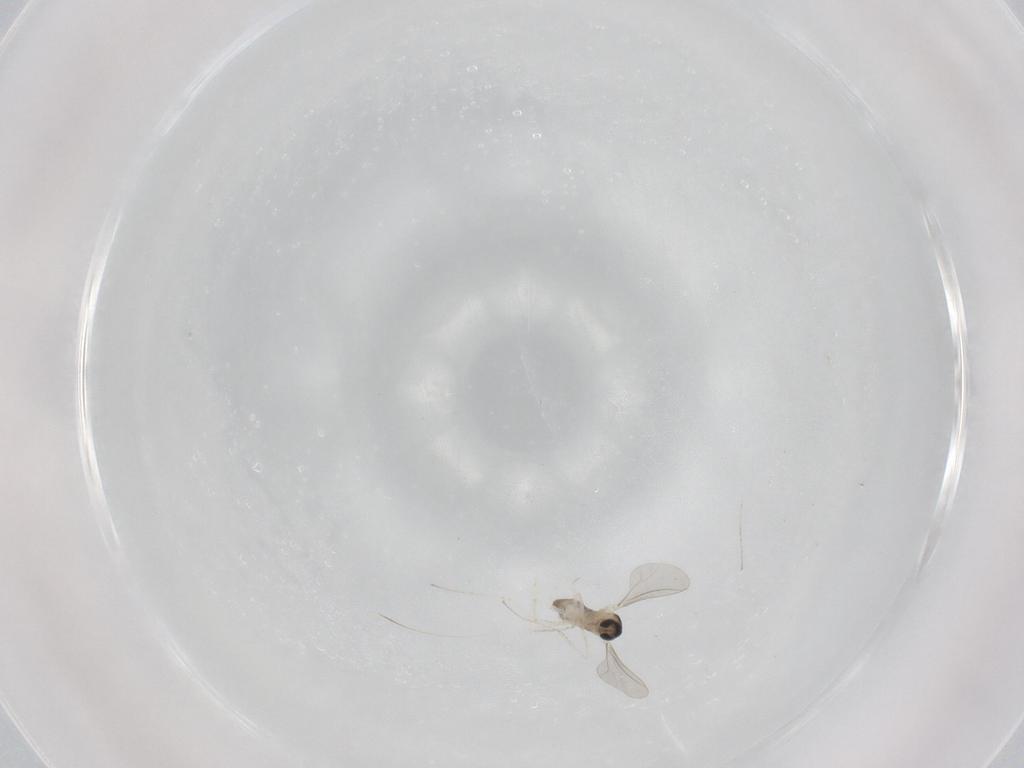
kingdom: Animalia
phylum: Arthropoda
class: Insecta
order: Diptera
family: Cecidomyiidae
